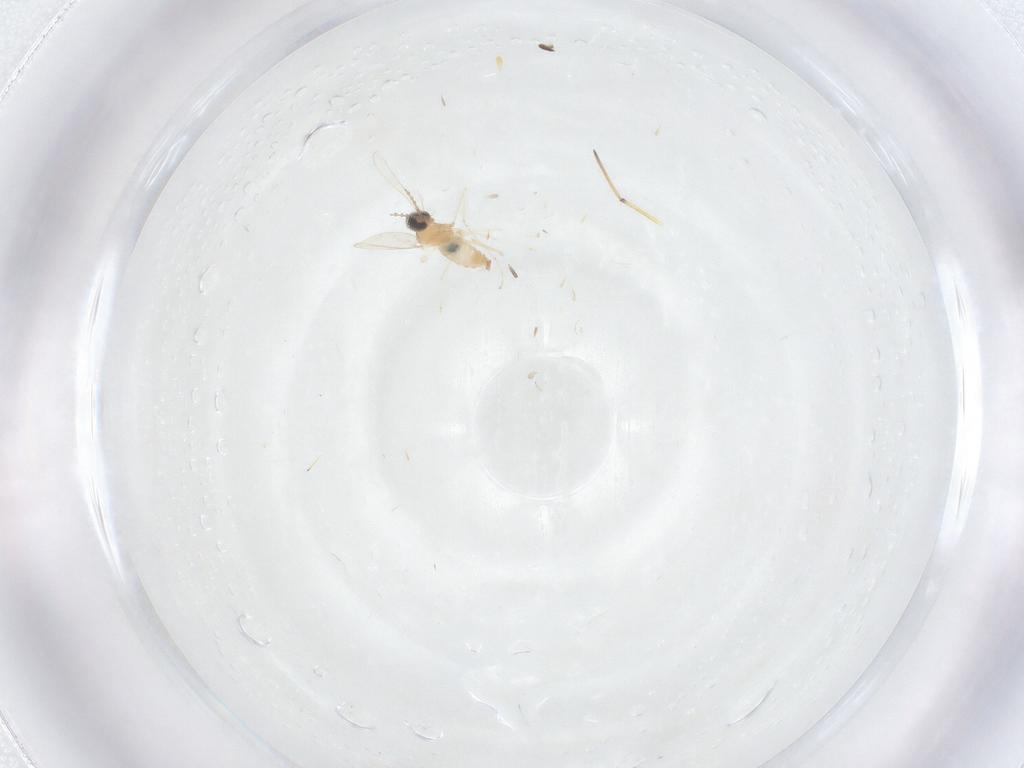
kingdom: Animalia
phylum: Arthropoda
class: Insecta
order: Diptera
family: Cecidomyiidae
